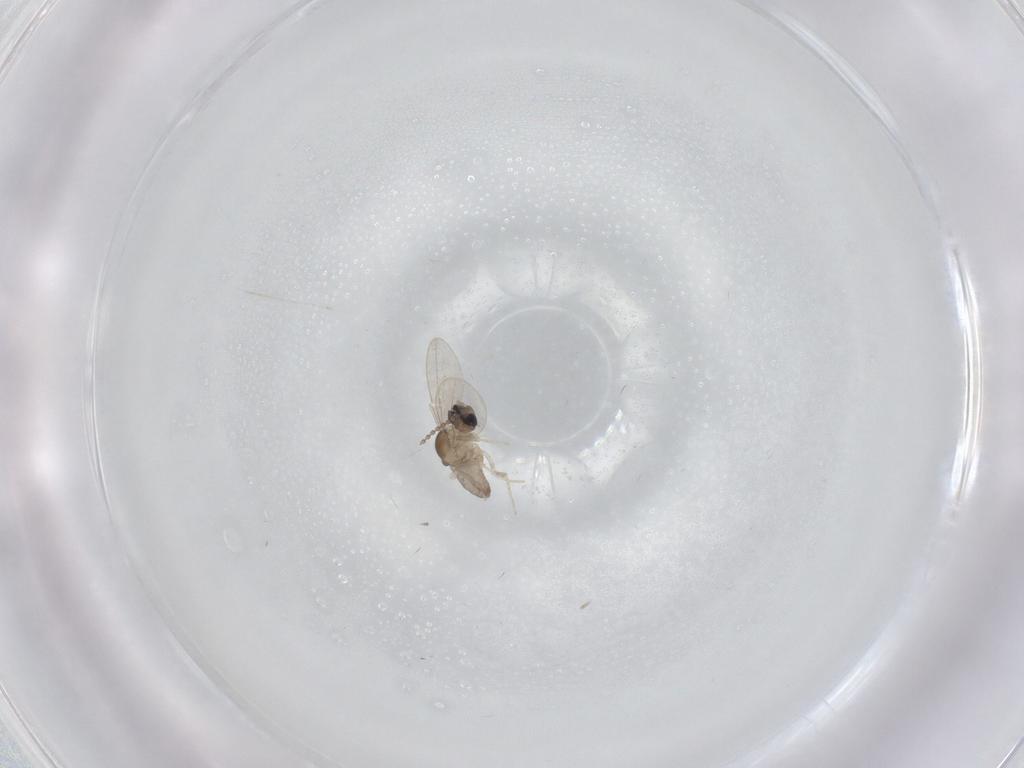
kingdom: Animalia
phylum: Arthropoda
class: Insecta
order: Diptera
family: Cecidomyiidae
